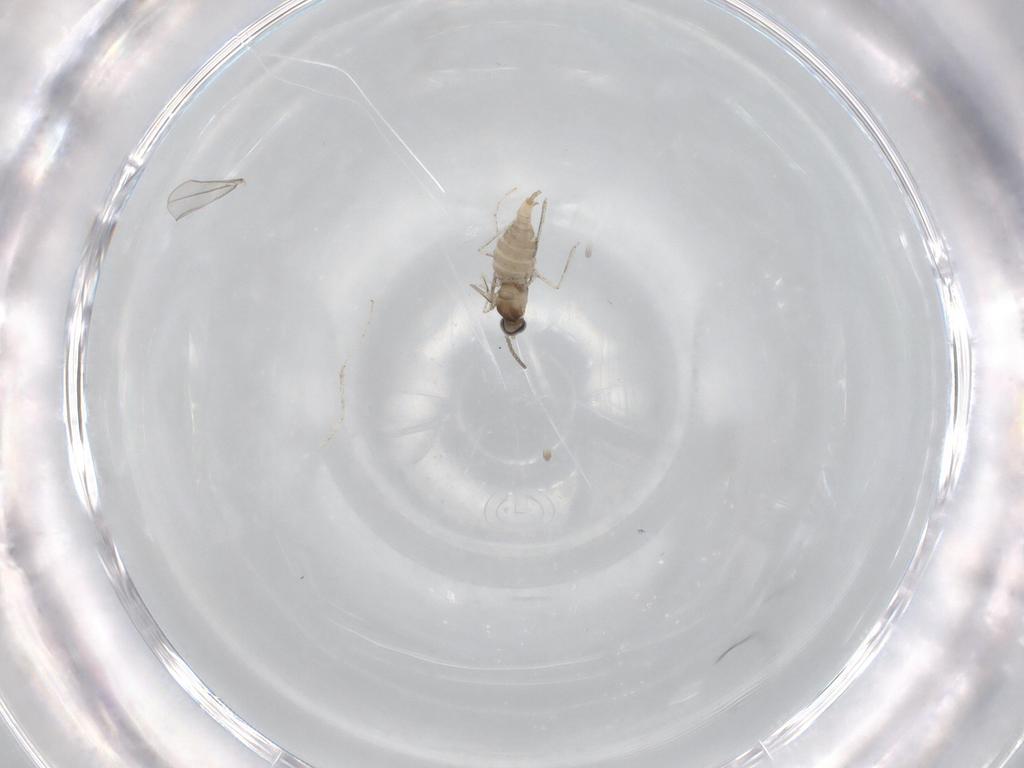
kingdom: Animalia
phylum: Arthropoda
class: Insecta
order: Diptera
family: Cecidomyiidae
